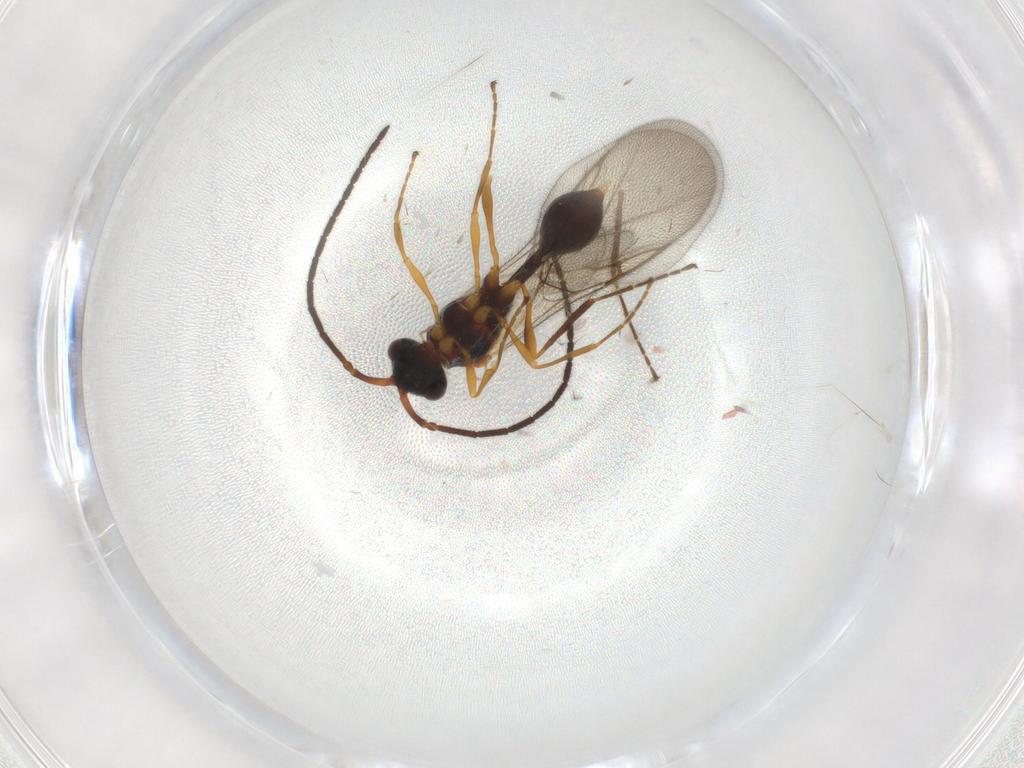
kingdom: Animalia
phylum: Arthropoda
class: Insecta
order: Hymenoptera
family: Diapriidae
